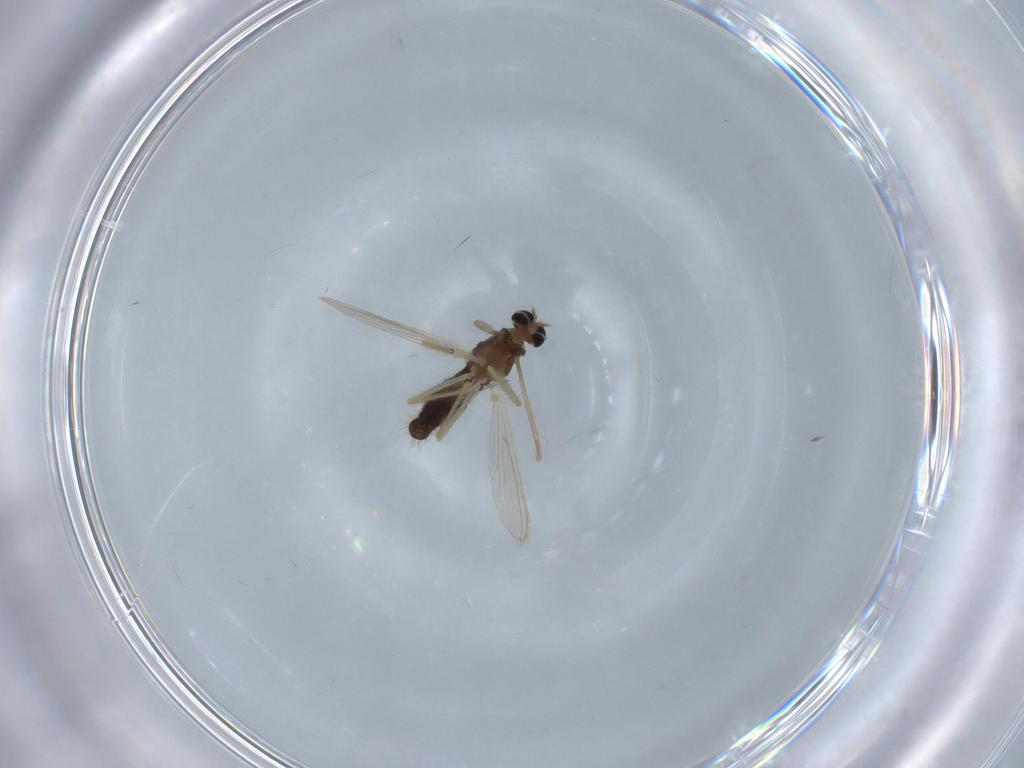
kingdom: Animalia
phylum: Arthropoda
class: Insecta
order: Diptera
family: Chironomidae
